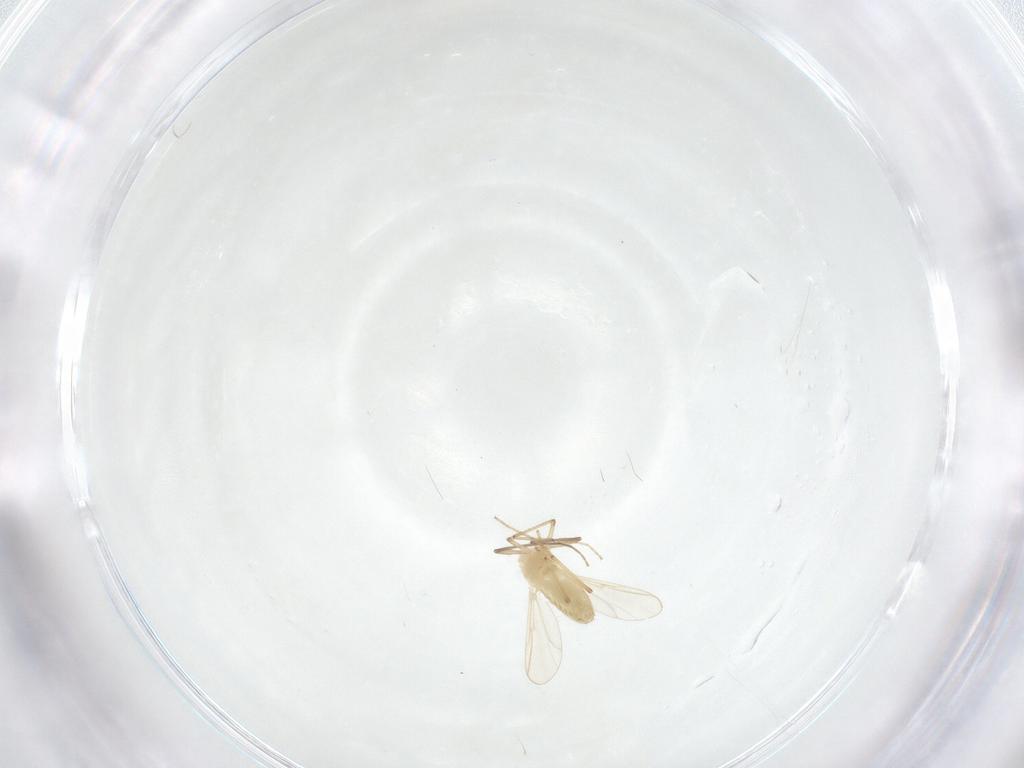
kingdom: Animalia
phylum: Arthropoda
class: Insecta
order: Diptera
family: Chironomidae
